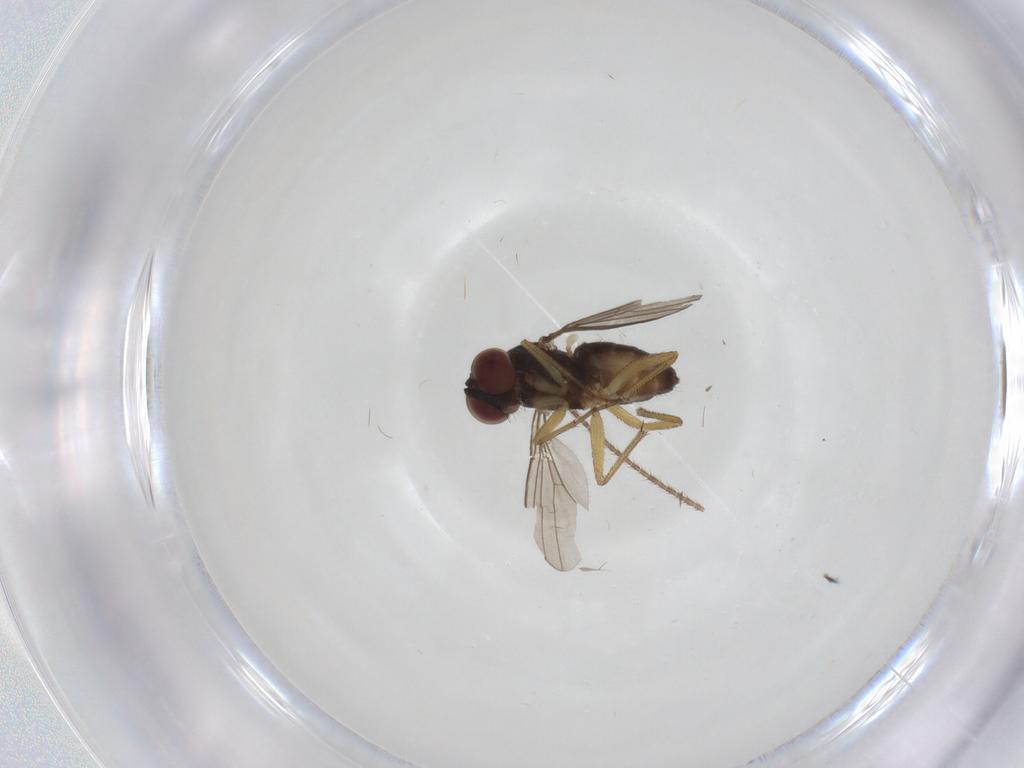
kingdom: Animalia
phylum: Arthropoda
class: Insecta
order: Diptera
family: Dolichopodidae
